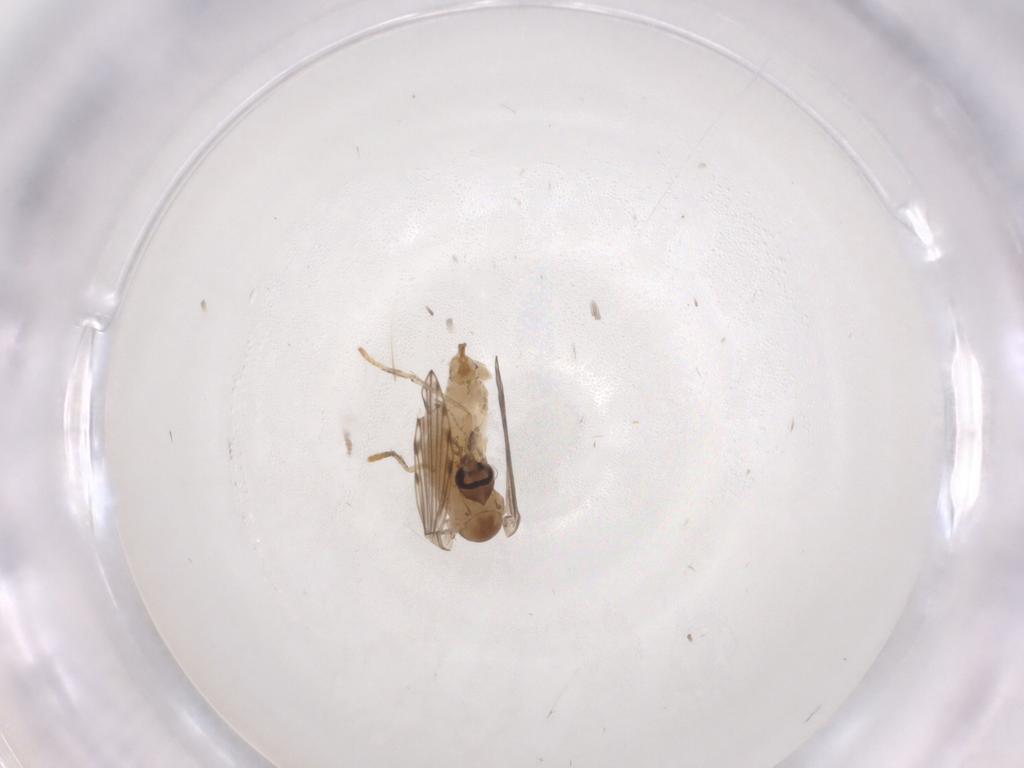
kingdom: Animalia
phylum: Arthropoda
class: Insecta
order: Diptera
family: Psychodidae
